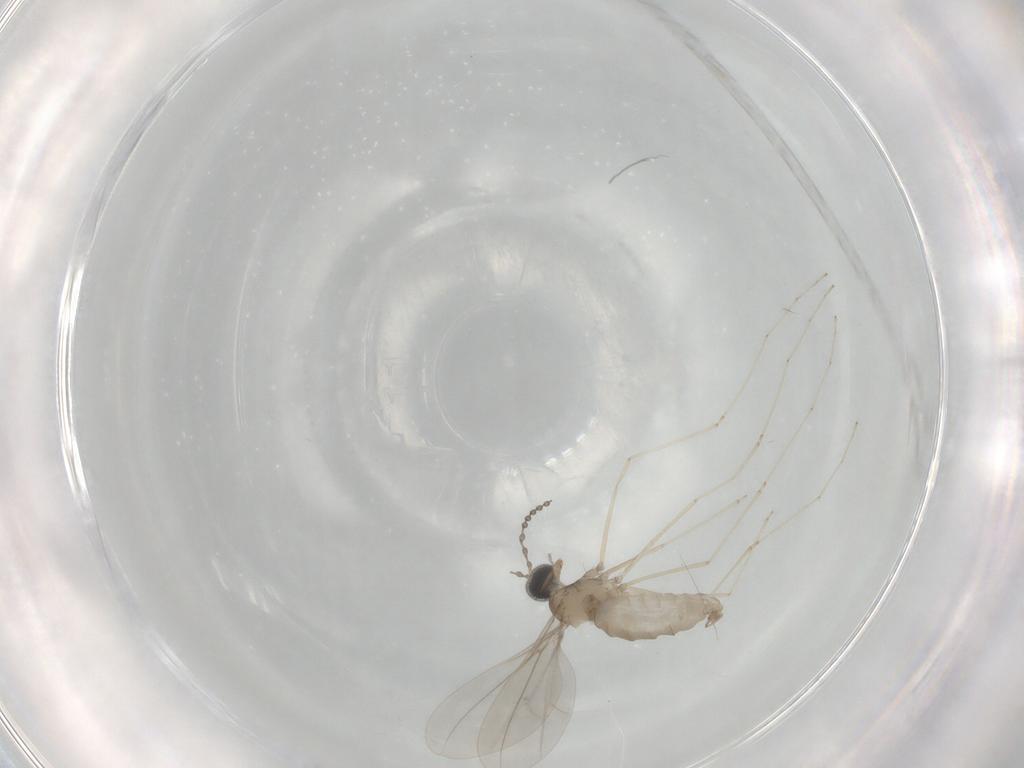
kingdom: Animalia
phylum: Arthropoda
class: Insecta
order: Diptera
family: Cecidomyiidae
